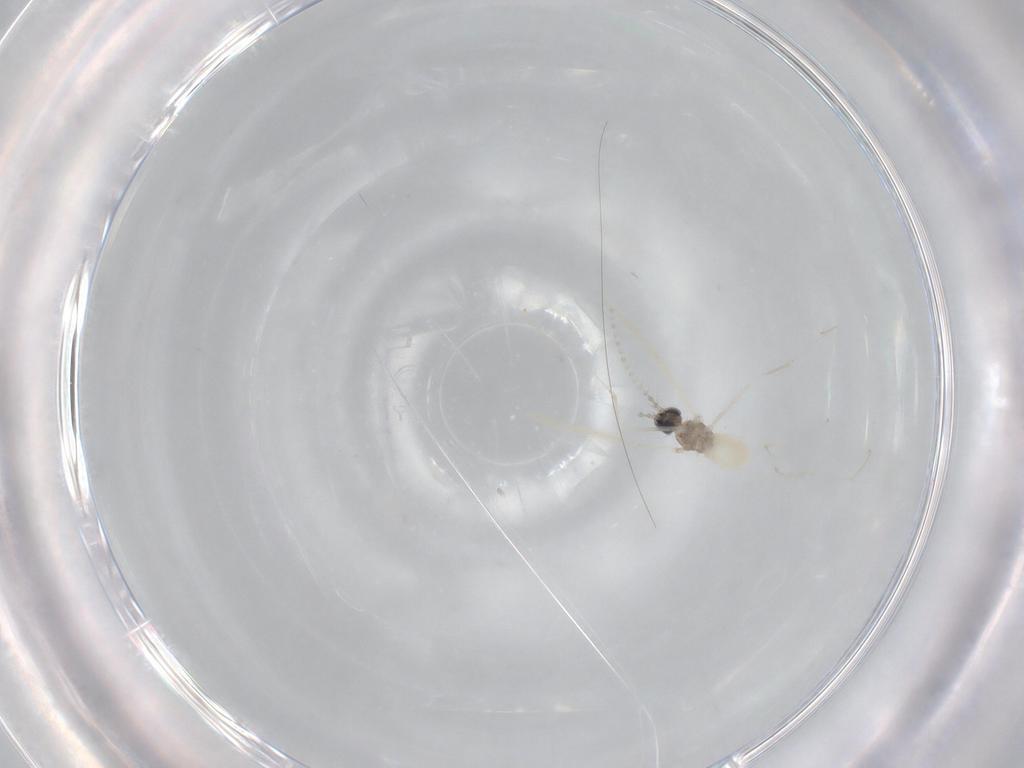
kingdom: Animalia
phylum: Arthropoda
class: Insecta
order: Diptera
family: Cecidomyiidae
